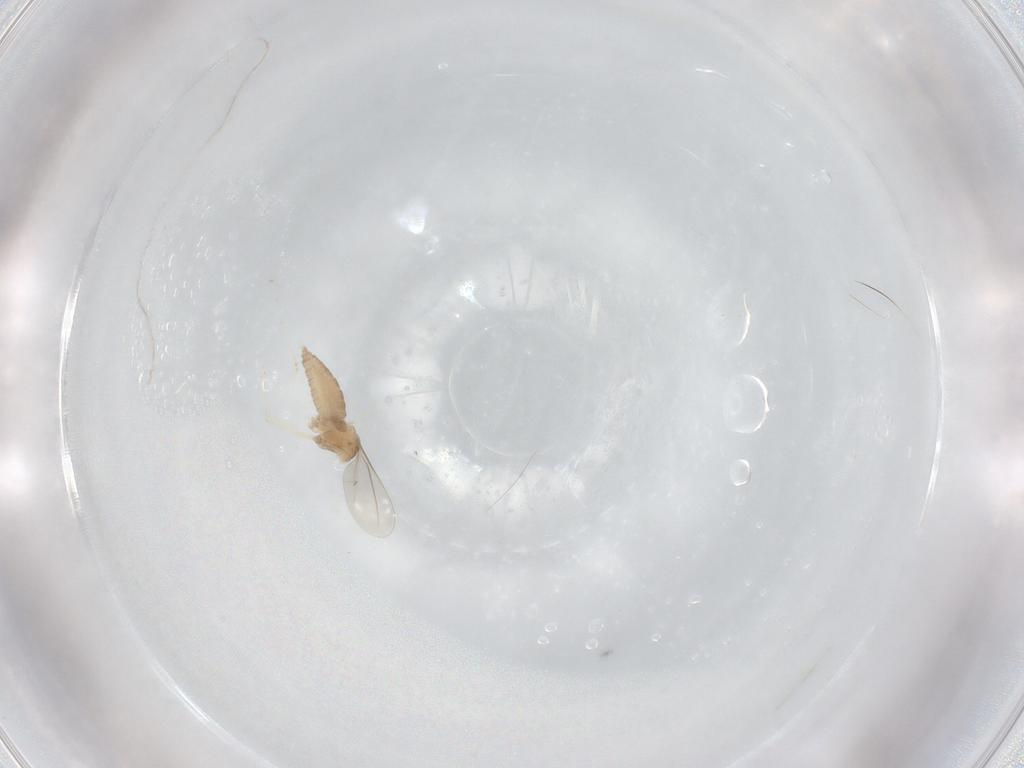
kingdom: Animalia
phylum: Arthropoda
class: Insecta
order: Diptera
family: Cecidomyiidae
